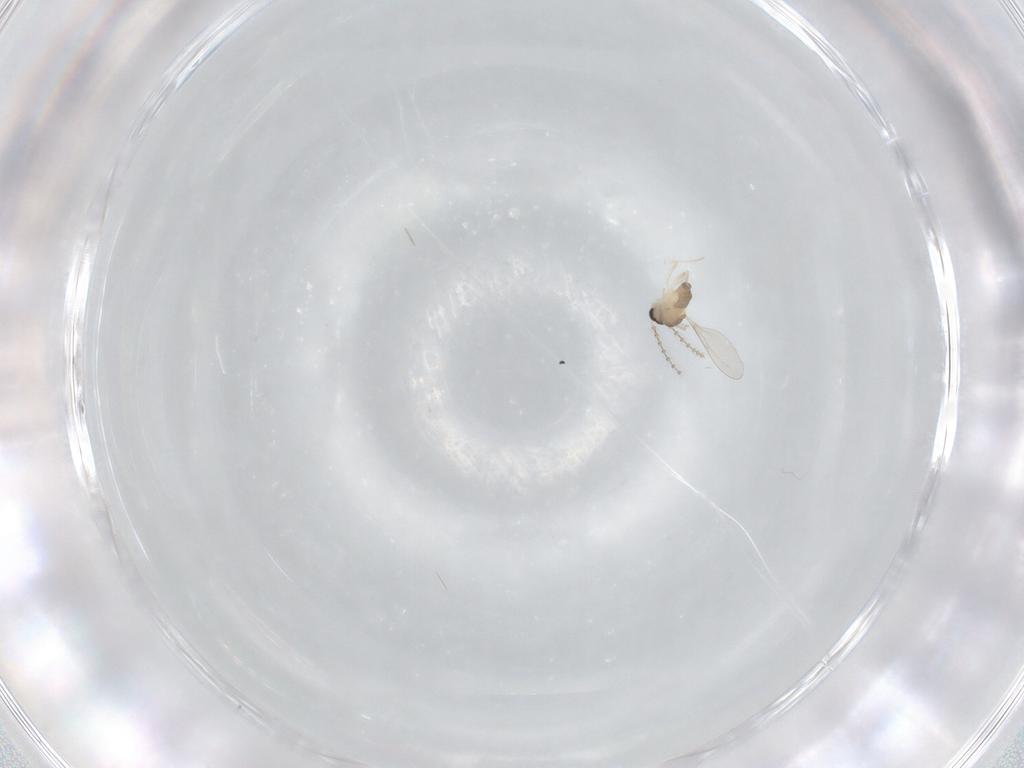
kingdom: Animalia
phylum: Arthropoda
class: Insecta
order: Diptera
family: Cecidomyiidae
